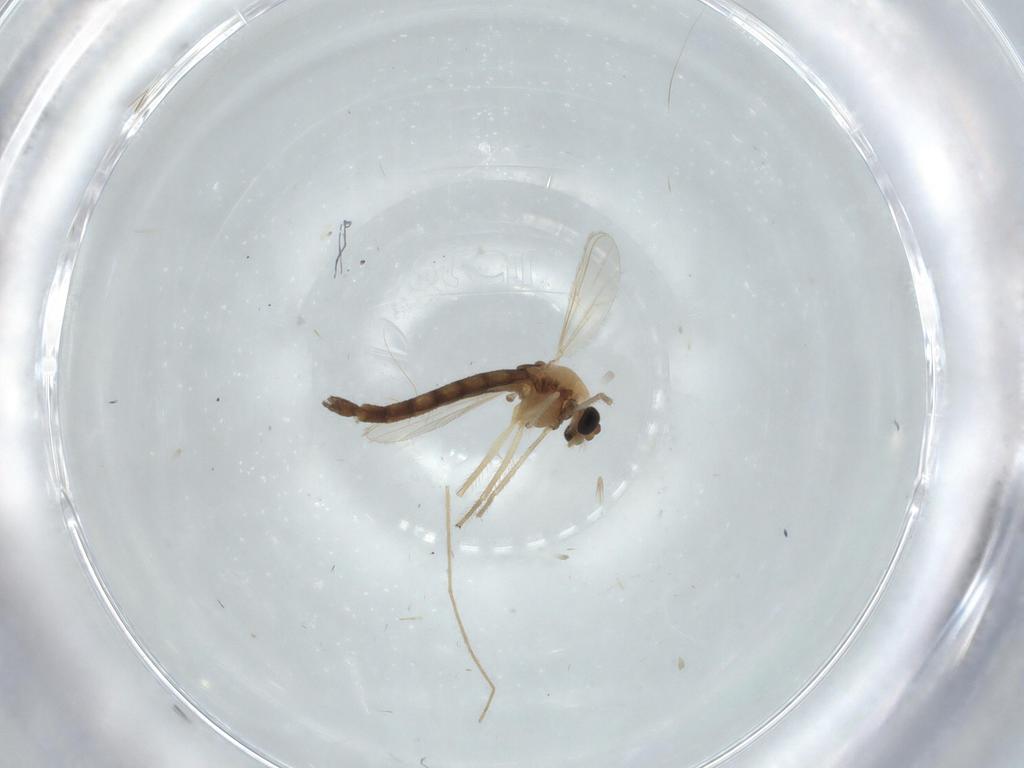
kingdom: Animalia
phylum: Arthropoda
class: Insecta
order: Diptera
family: Chironomidae
